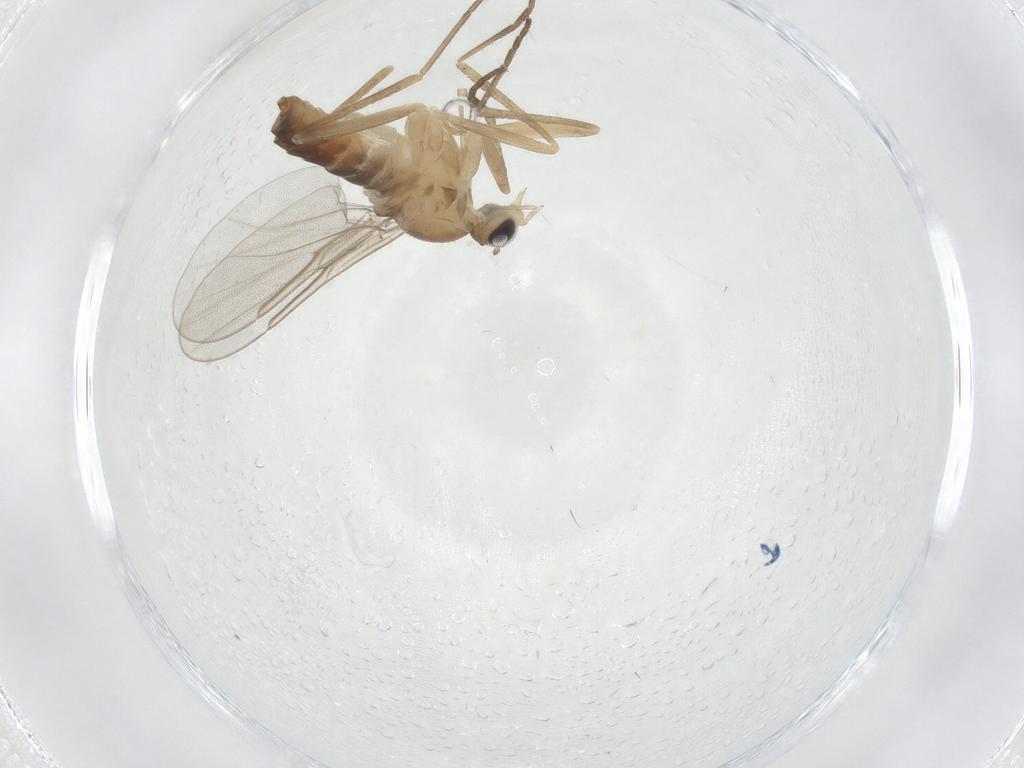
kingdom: Animalia
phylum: Arthropoda
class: Insecta
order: Diptera
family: Cecidomyiidae
